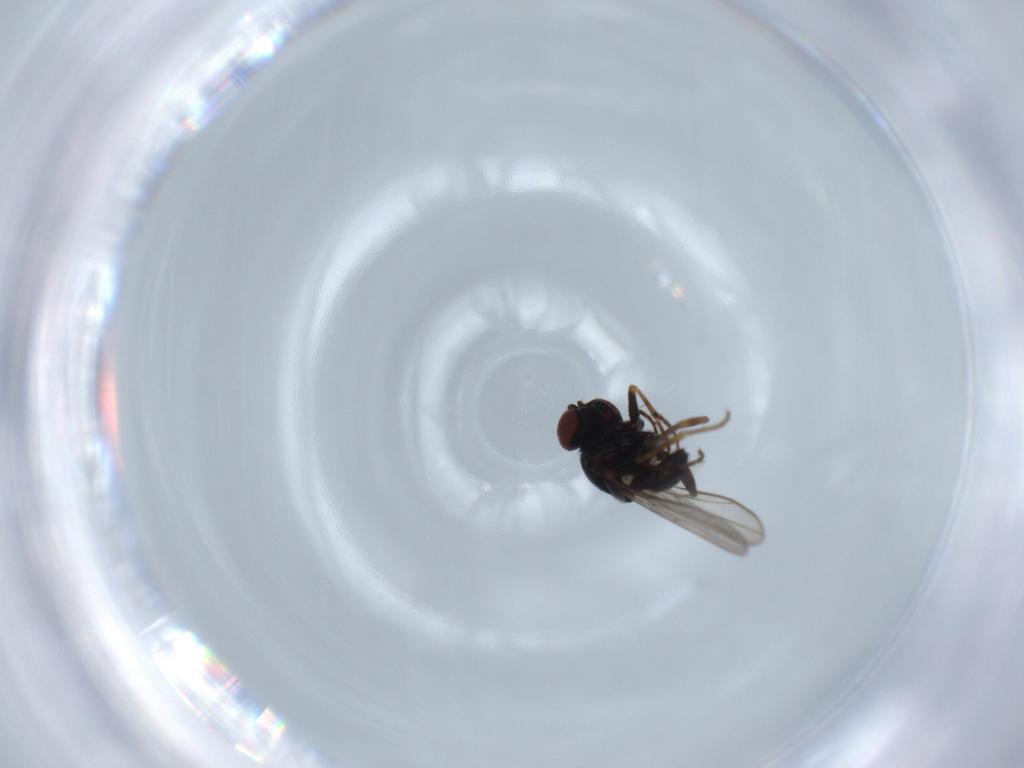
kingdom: Animalia
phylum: Arthropoda
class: Insecta
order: Diptera
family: Chloropidae
